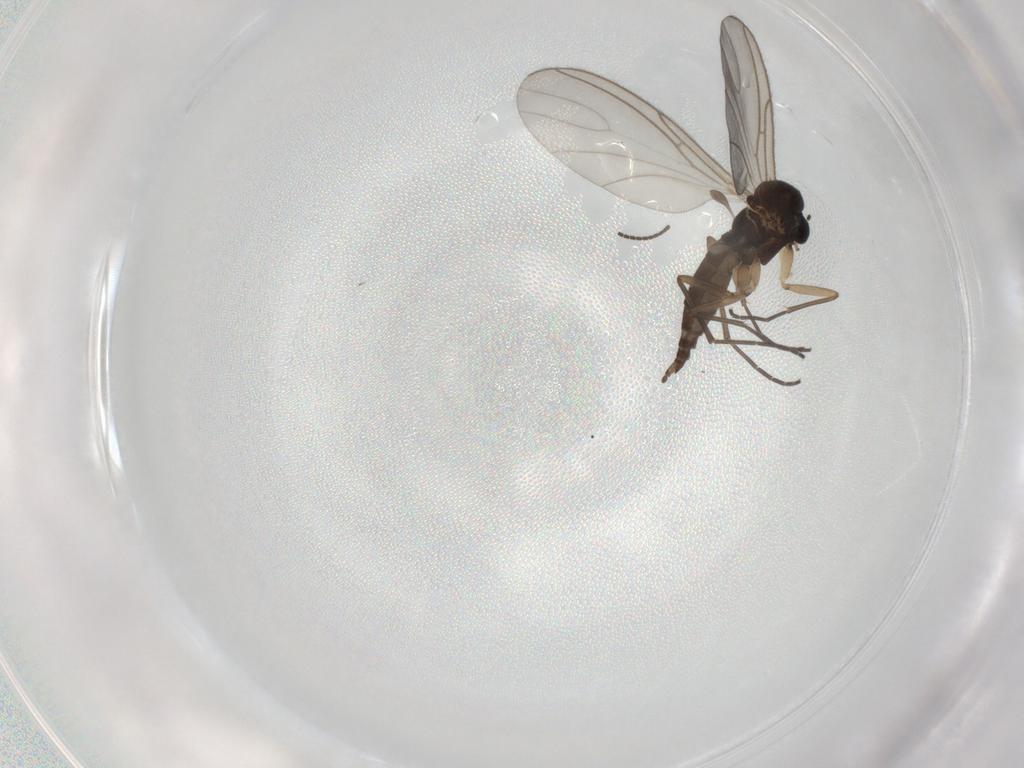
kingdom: Animalia
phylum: Arthropoda
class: Insecta
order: Diptera
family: Sciaridae
